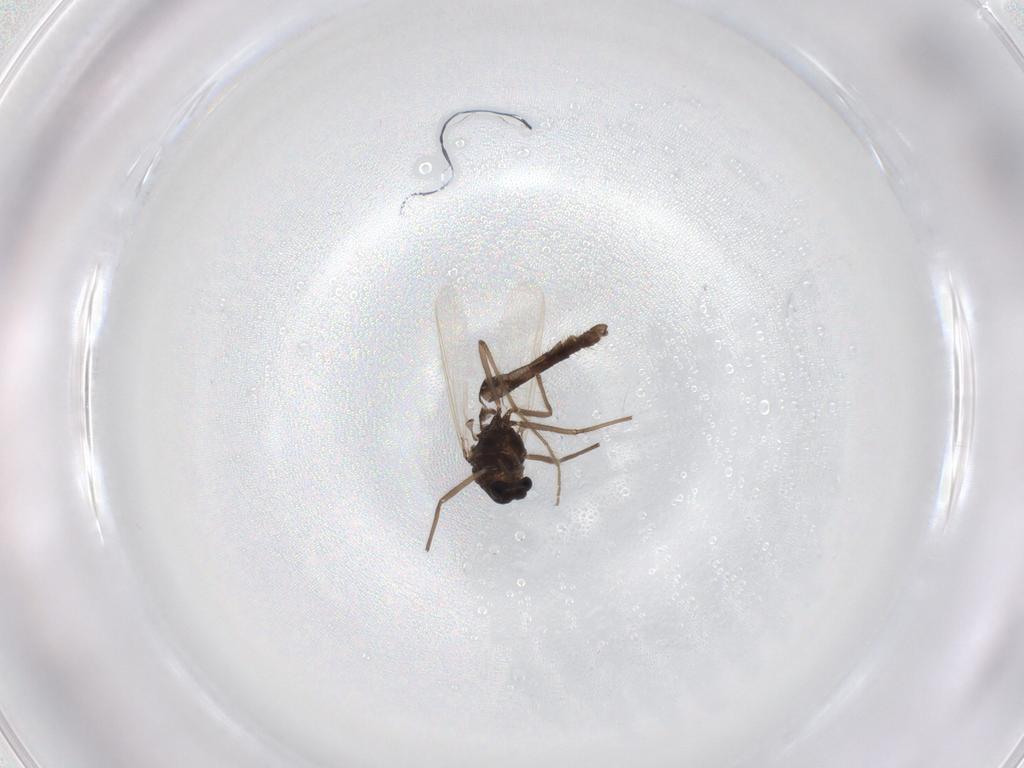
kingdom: Animalia
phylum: Arthropoda
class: Insecta
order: Diptera
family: Chironomidae
